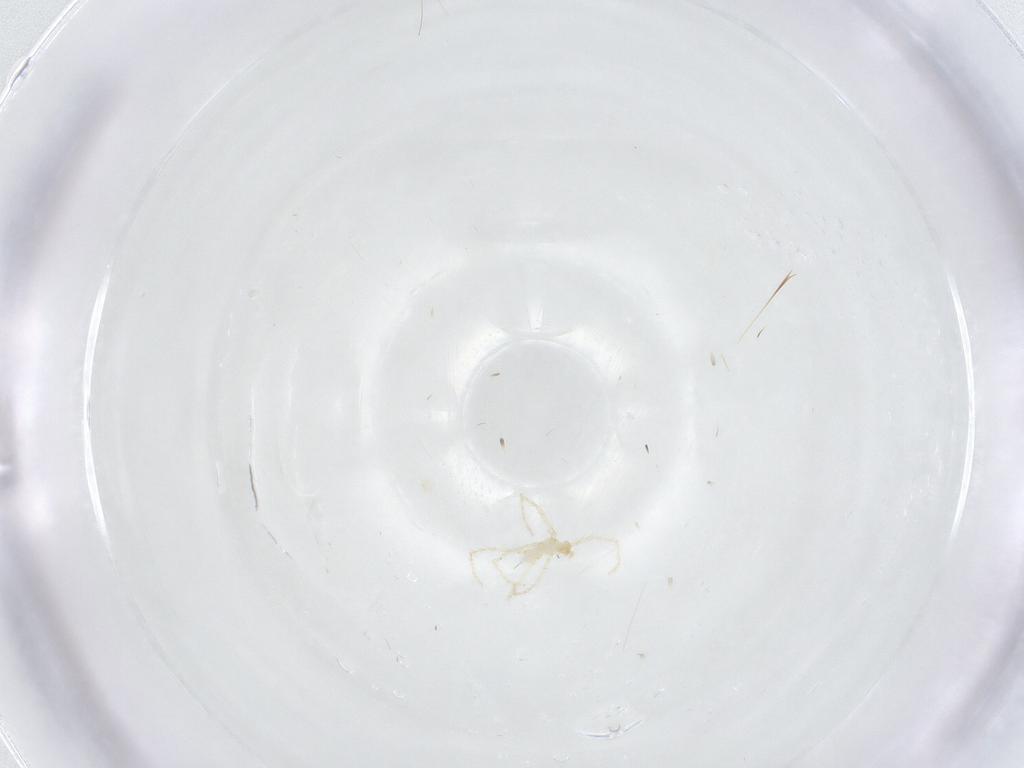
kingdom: Animalia
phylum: Arthropoda
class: Arachnida
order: Trombidiformes
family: Erythraeidae
